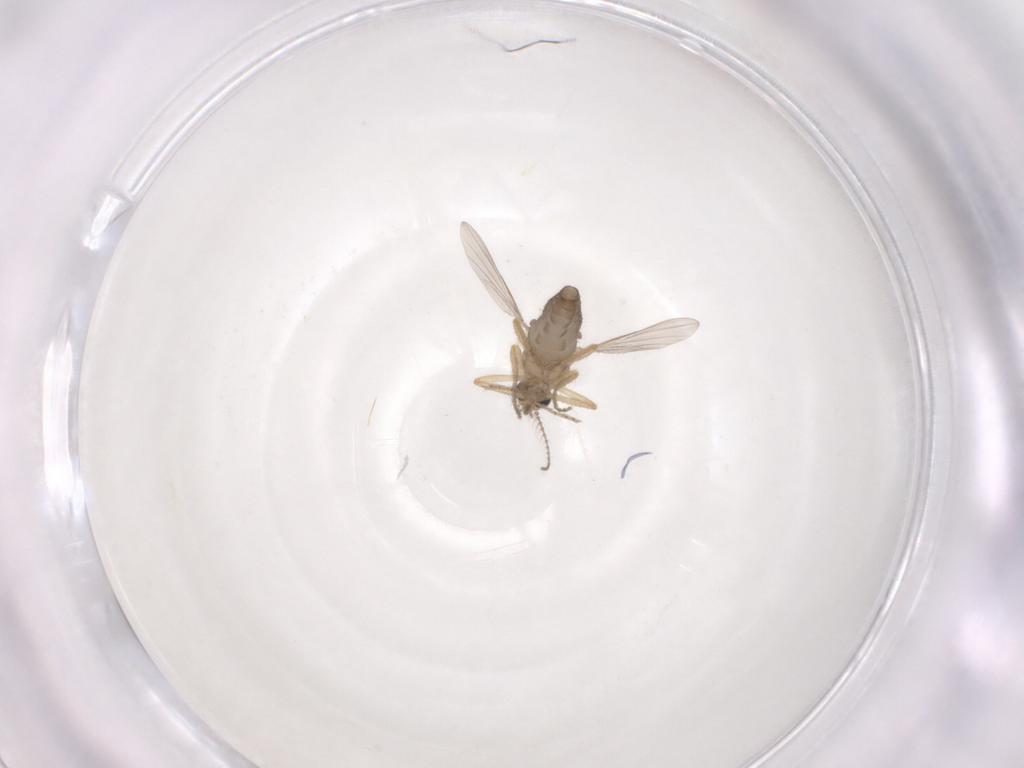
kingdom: Animalia
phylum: Arthropoda
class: Insecta
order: Diptera
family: Ceratopogonidae
